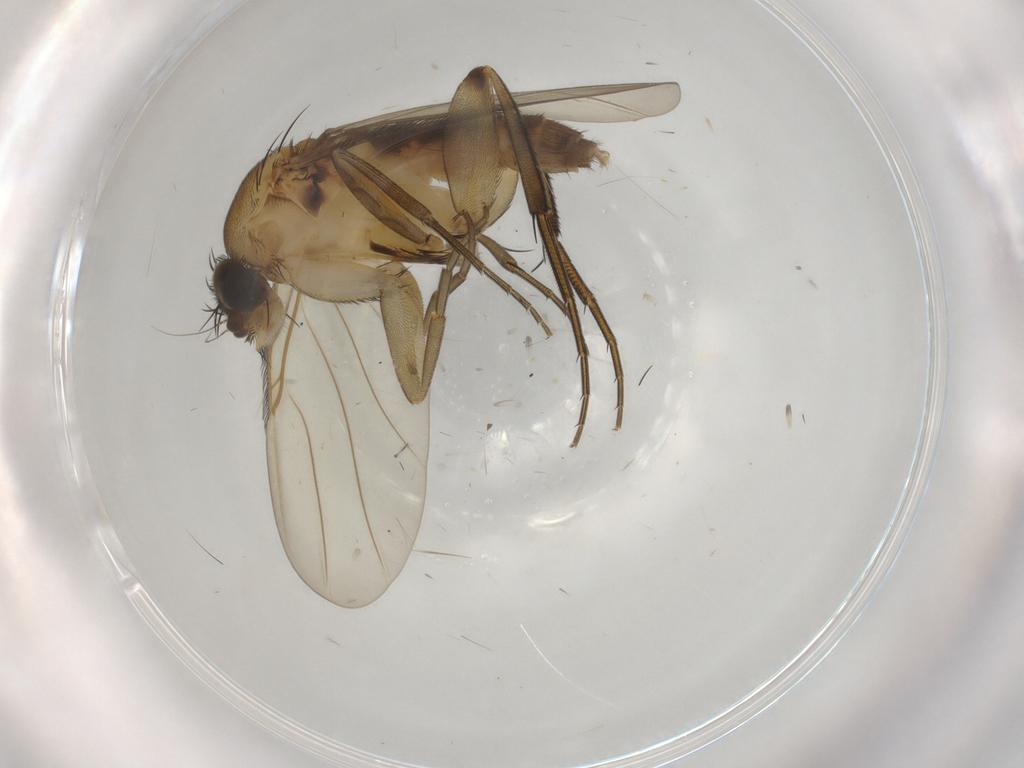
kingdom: Animalia
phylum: Arthropoda
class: Insecta
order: Diptera
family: Phoridae
